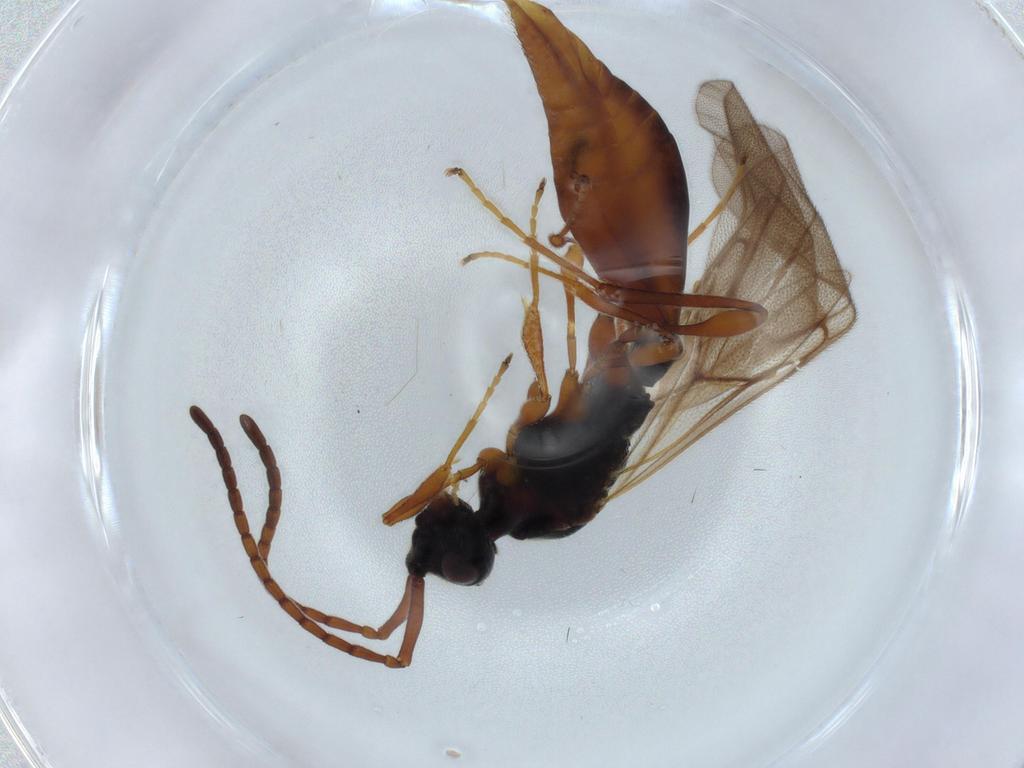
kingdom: Animalia
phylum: Arthropoda
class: Insecta
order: Hymenoptera
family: Diapriidae
